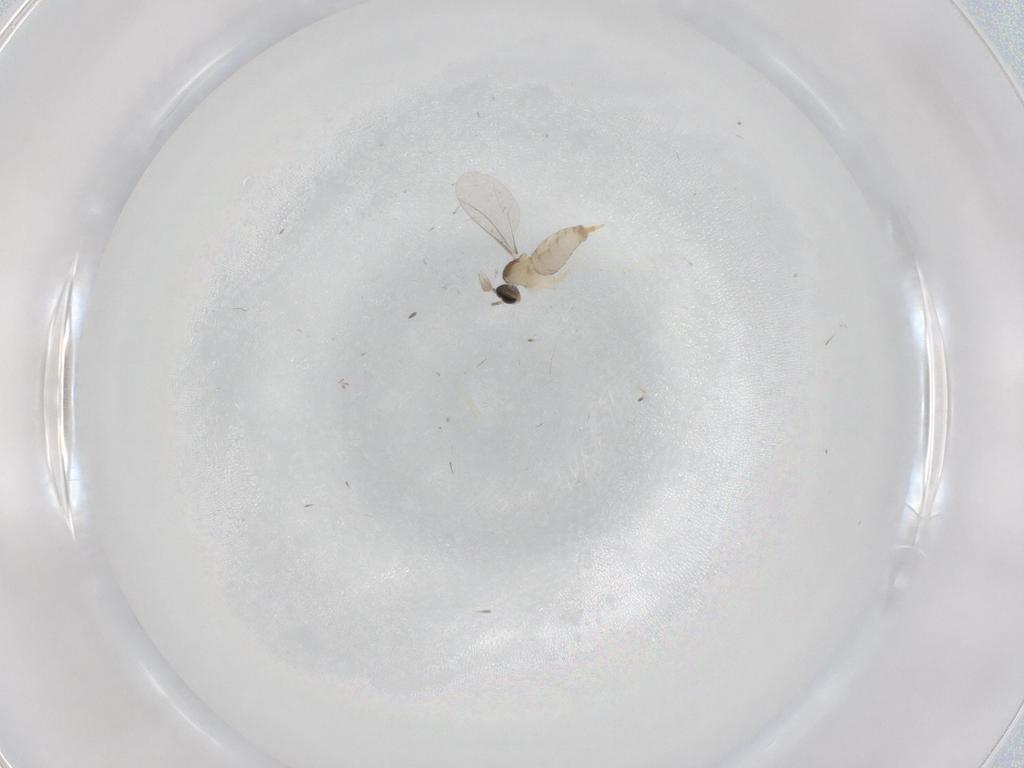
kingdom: Animalia
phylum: Arthropoda
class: Insecta
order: Diptera
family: Cecidomyiidae
